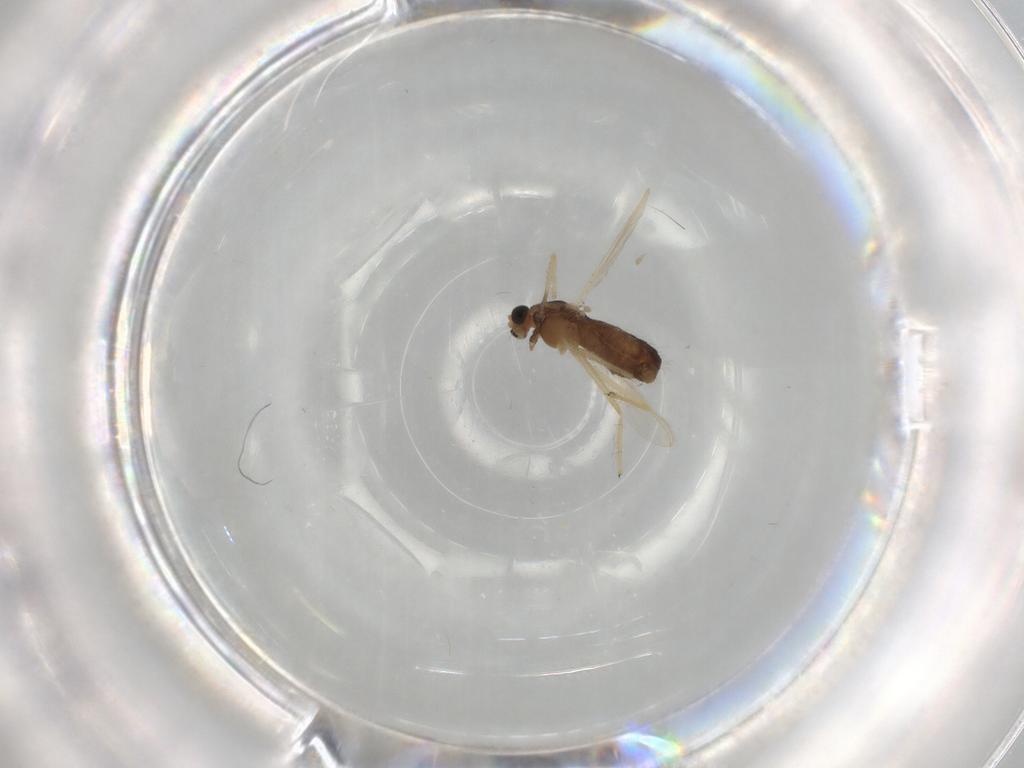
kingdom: Animalia
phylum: Arthropoda
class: Insecta
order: Diptera
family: Chironomidae
